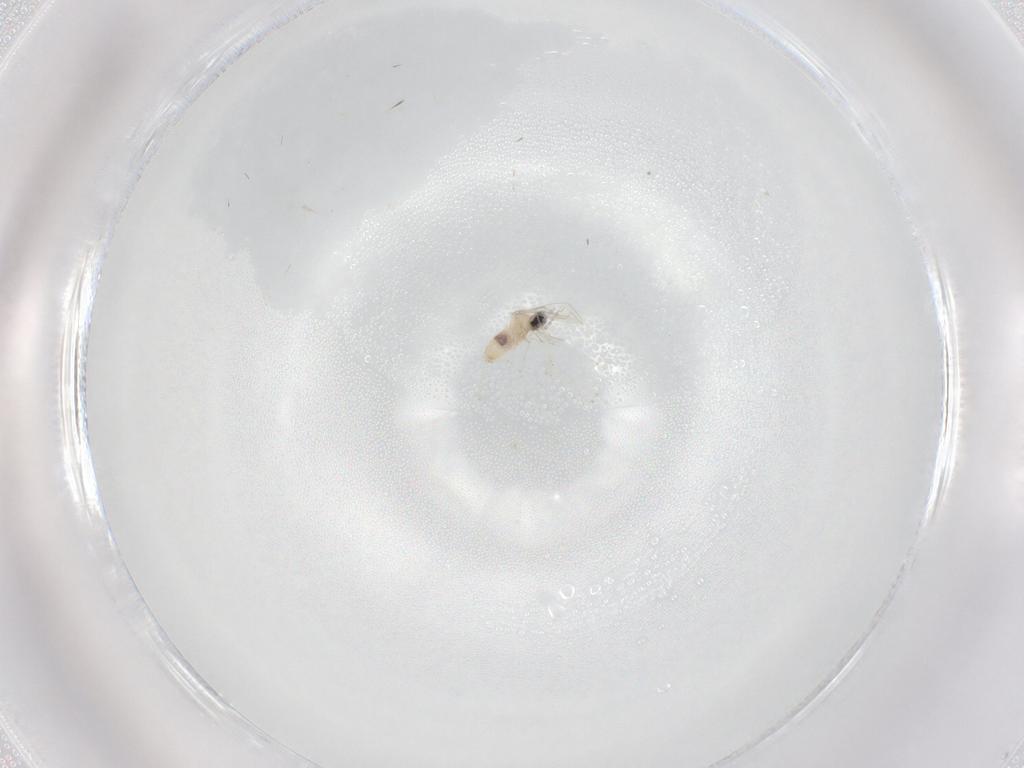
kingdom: Animalia
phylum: Arthropoda
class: Insecta
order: Diptera
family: Cecidomyiidae
